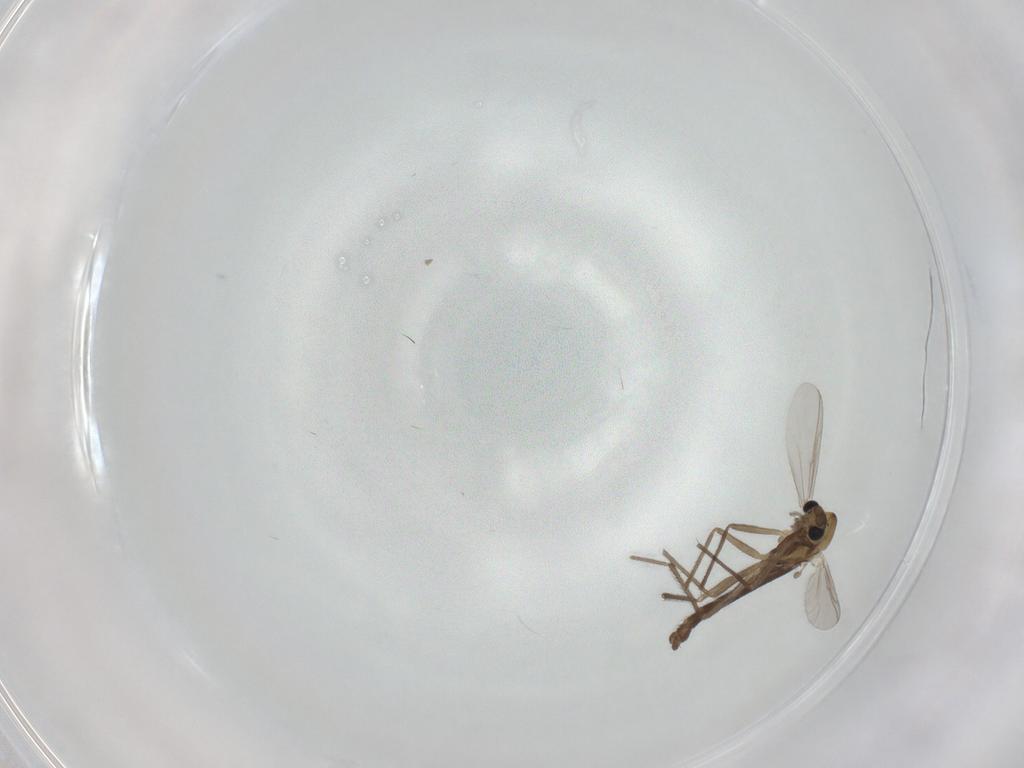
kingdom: Animalia
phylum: Arthropoda
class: Insecta
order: Diptera
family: Chironomidae
